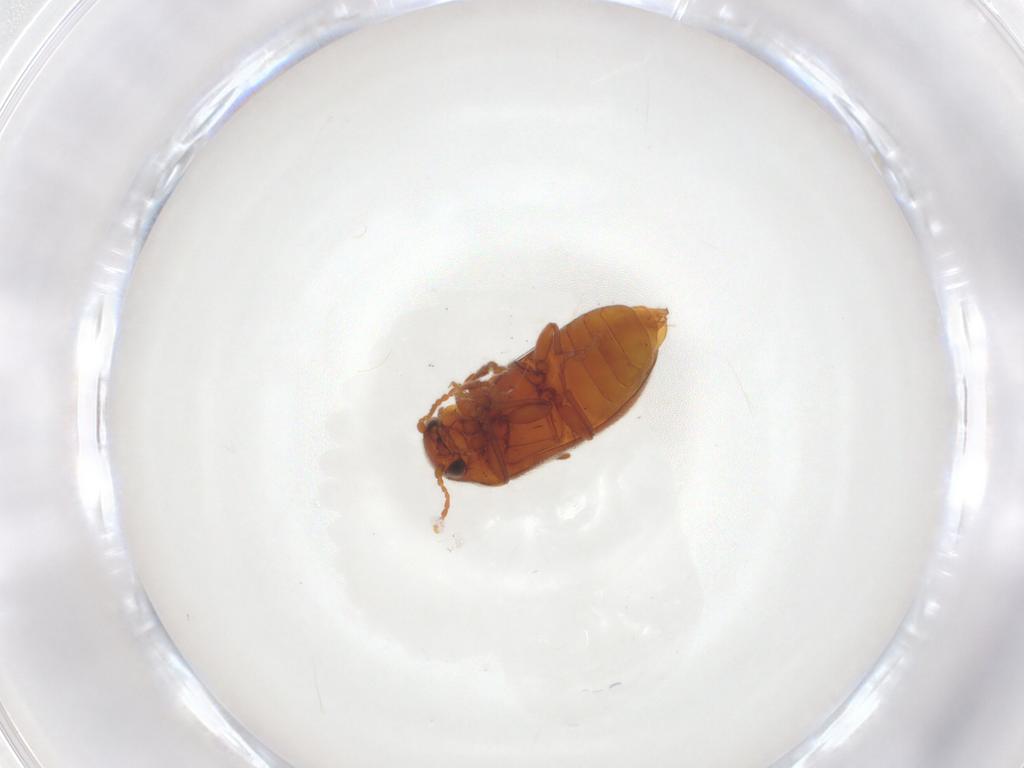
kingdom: Animalia
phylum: Arthropoda
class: Insecta
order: Coleoptera
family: Ptinidae
